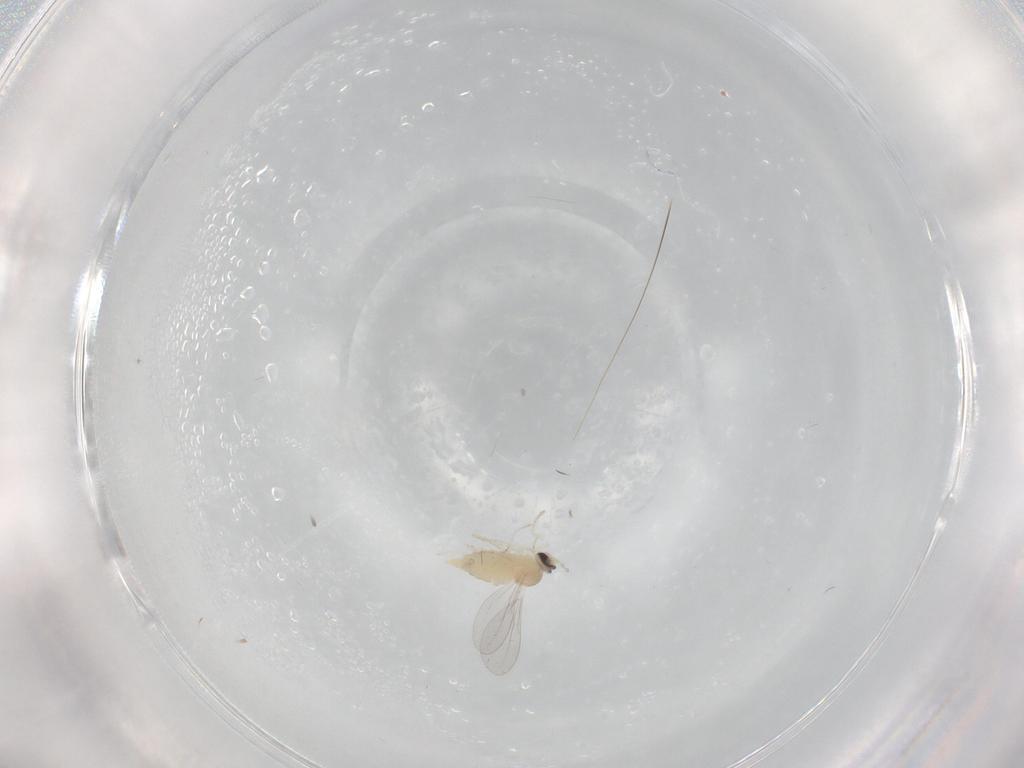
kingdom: Animalia
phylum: Arthropoda
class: Insecta
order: Diptera
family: Cecidomyiidae
